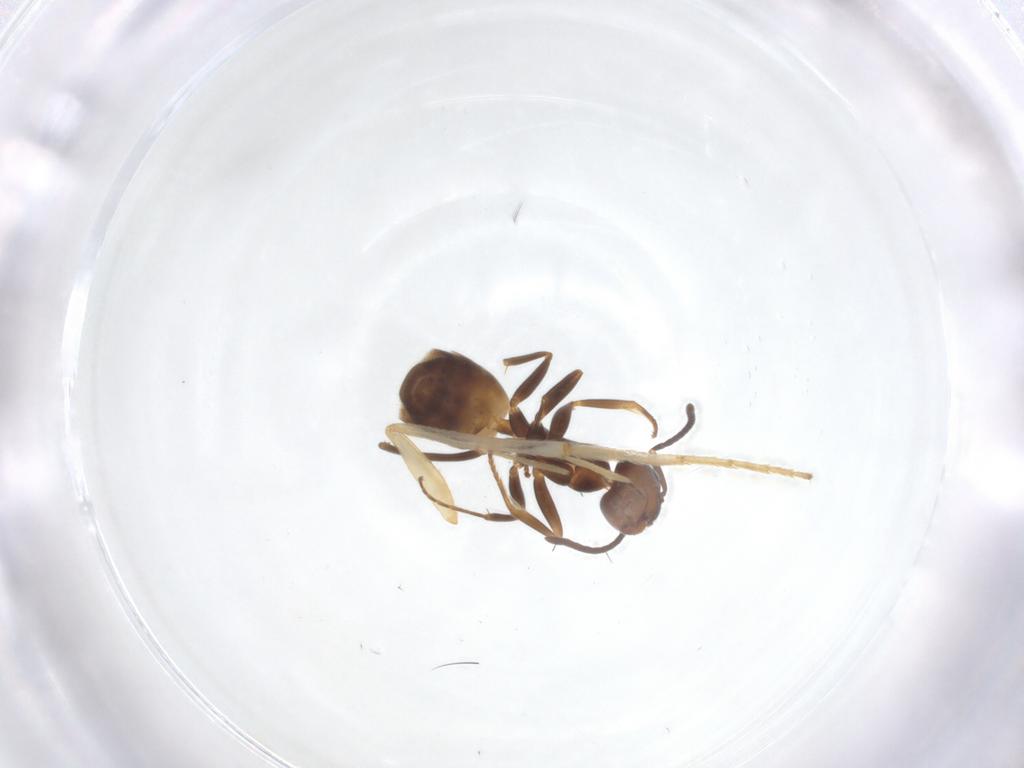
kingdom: Animalia
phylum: Arthropoda
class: Insecta
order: Hymenoptera
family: Formicidae
